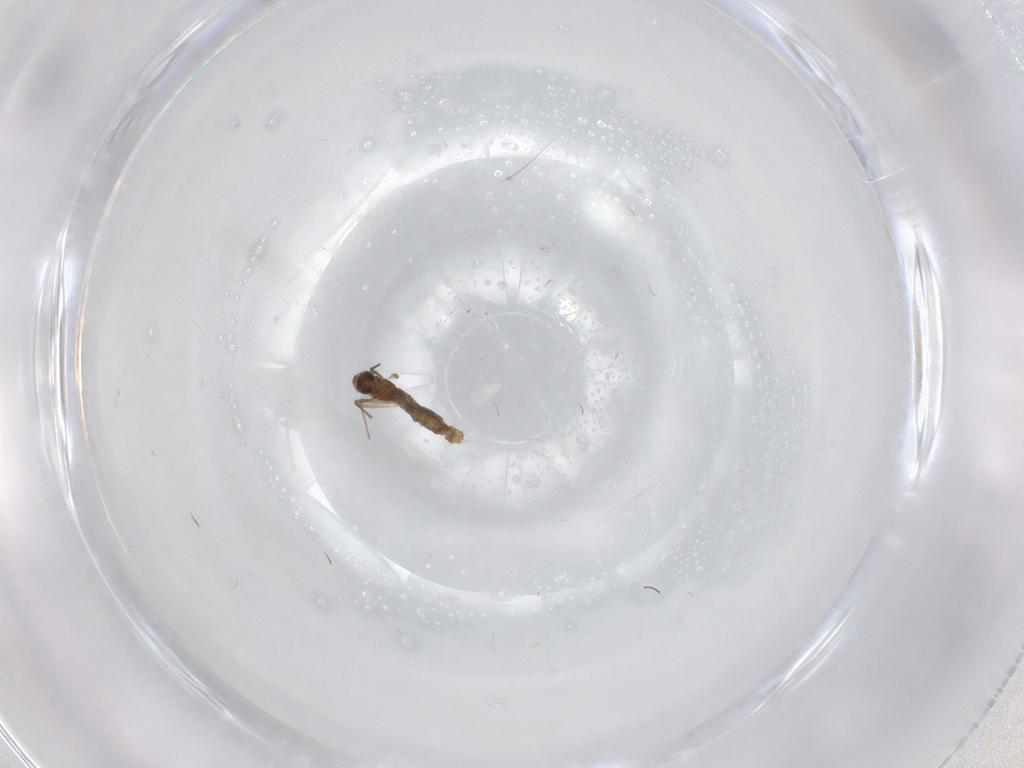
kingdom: Animalia
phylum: Arthropoda
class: Insecta
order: Diptera
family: Chironomidae
